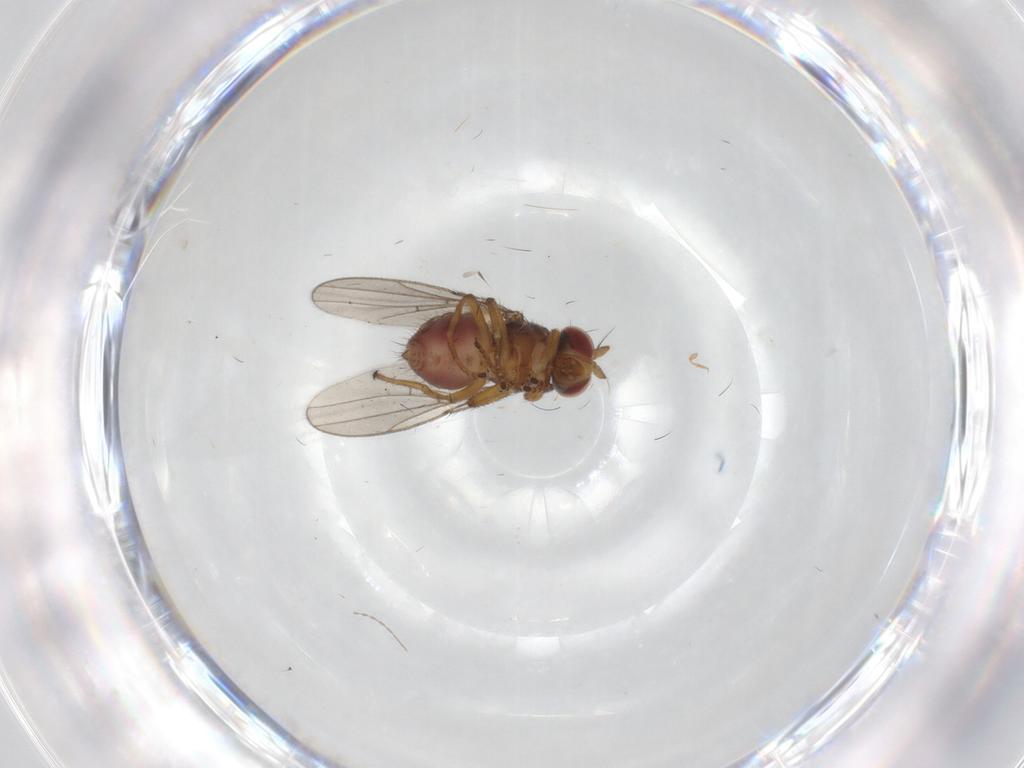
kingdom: Animalia
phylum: Arthropoda
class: Insecta
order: Diptera
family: Ephydridae
